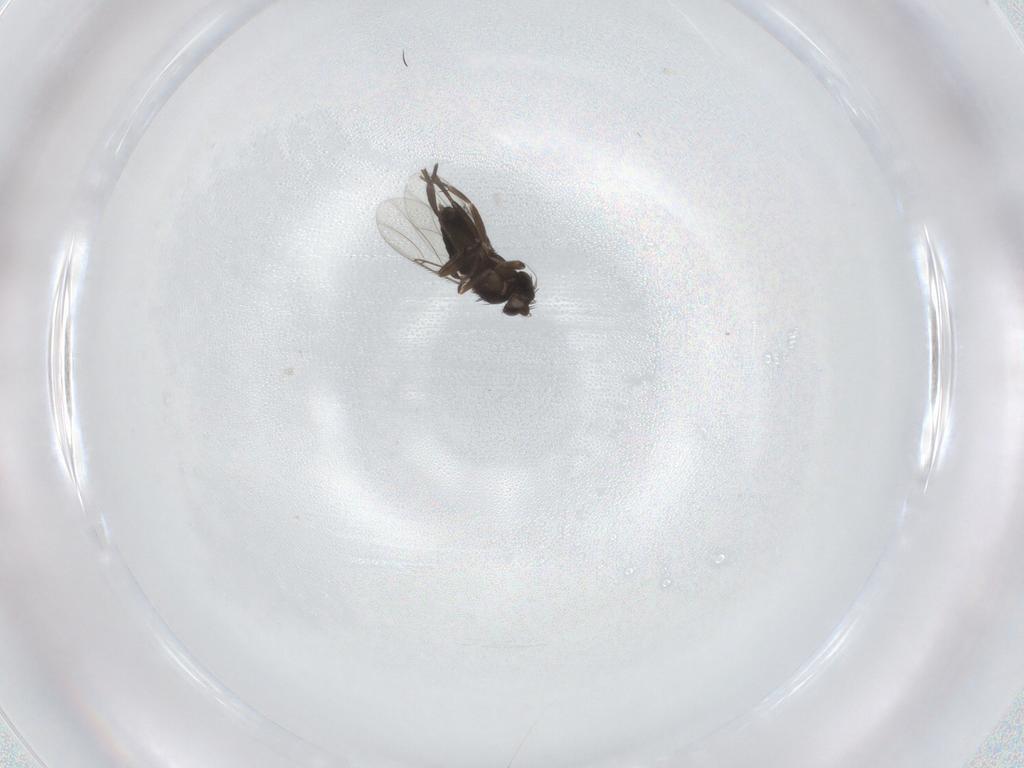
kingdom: Animalia
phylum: Arthropoda
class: Insecta
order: Diptera
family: Phoridae
